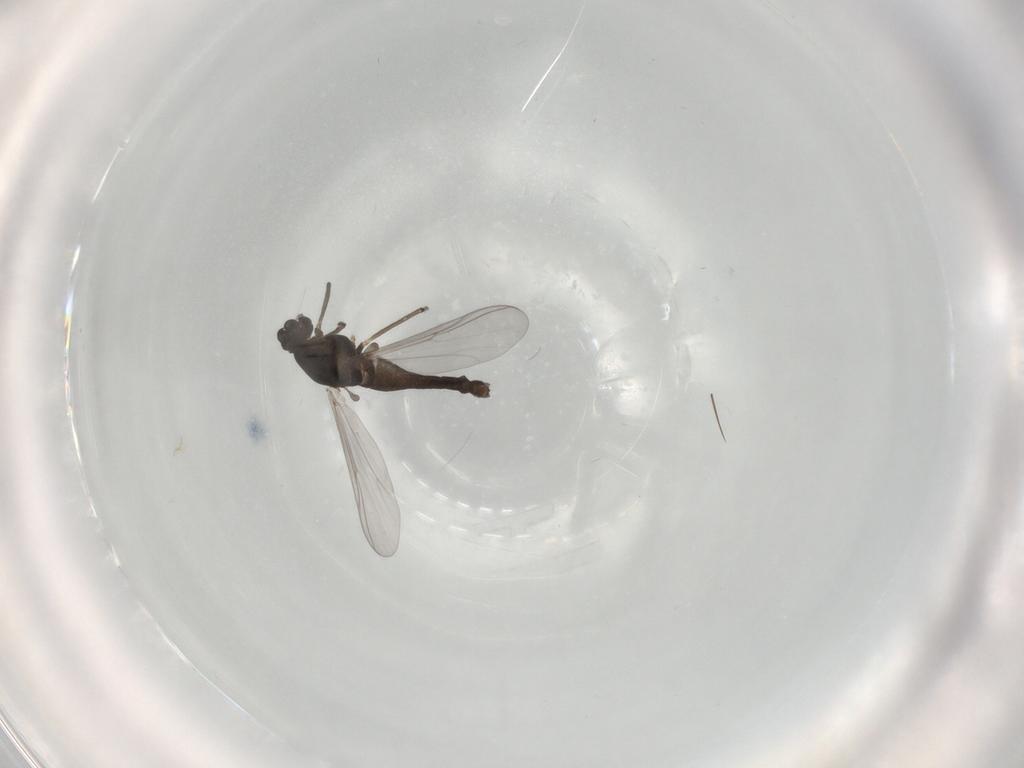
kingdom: Animalia
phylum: Arthropoda
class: Insecta
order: Diptera
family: Chironomidae
